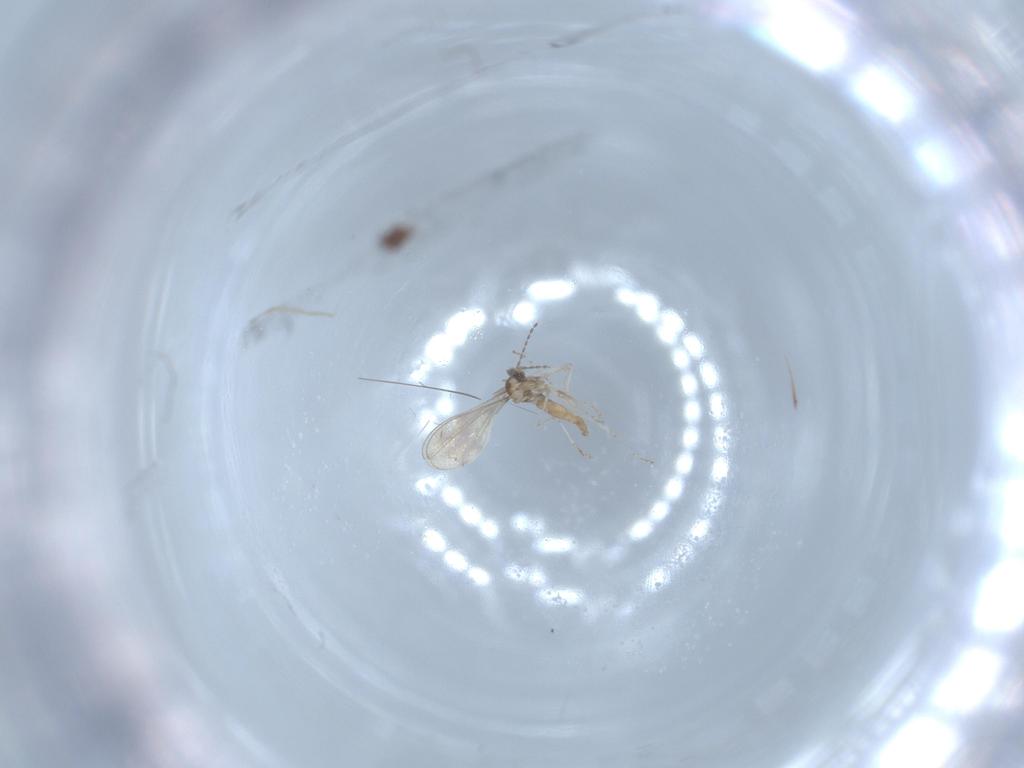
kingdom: Animalia
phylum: Arthropoda
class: Insecta
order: Diptera
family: Cecidomyiidae
